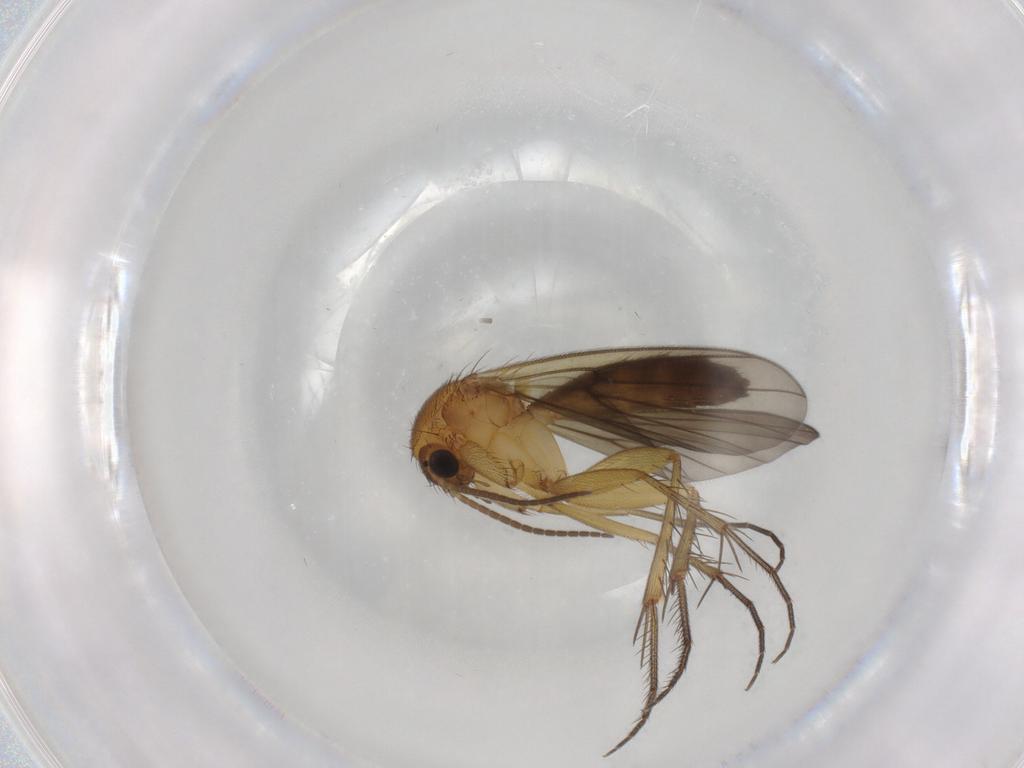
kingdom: Animalia
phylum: Arthropoda
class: Insecta
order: Diptera
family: Mycetophilidae
